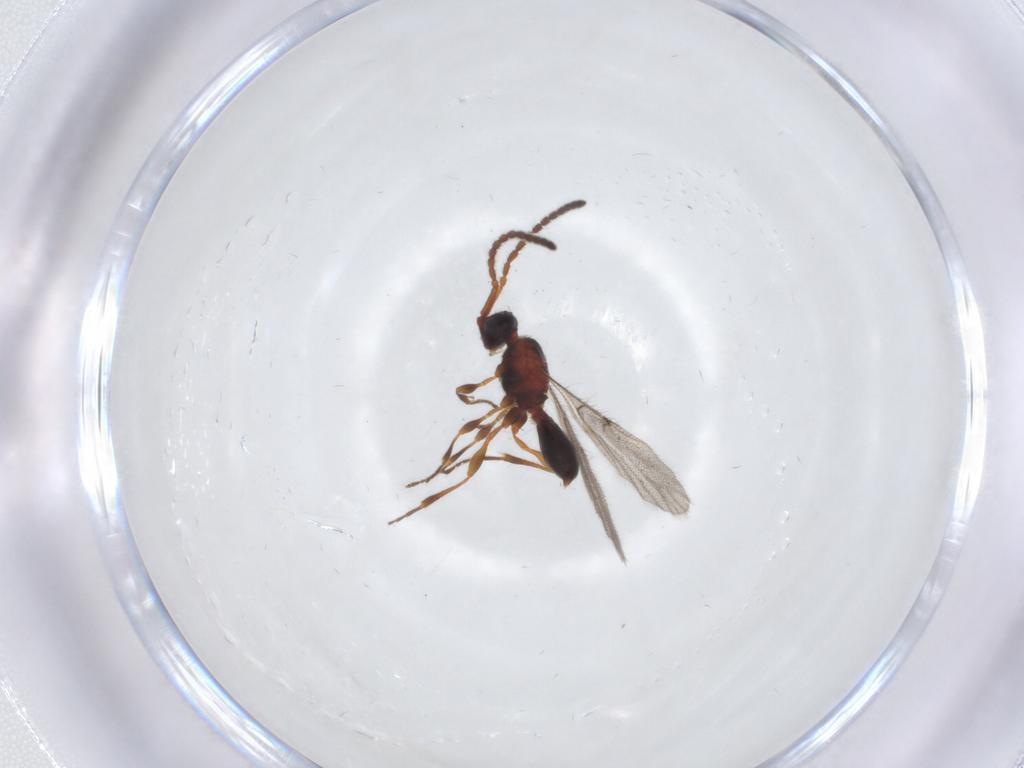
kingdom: Animalia
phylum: Arthropoda
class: Insecta
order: Hymenoptera
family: Diapriidae
